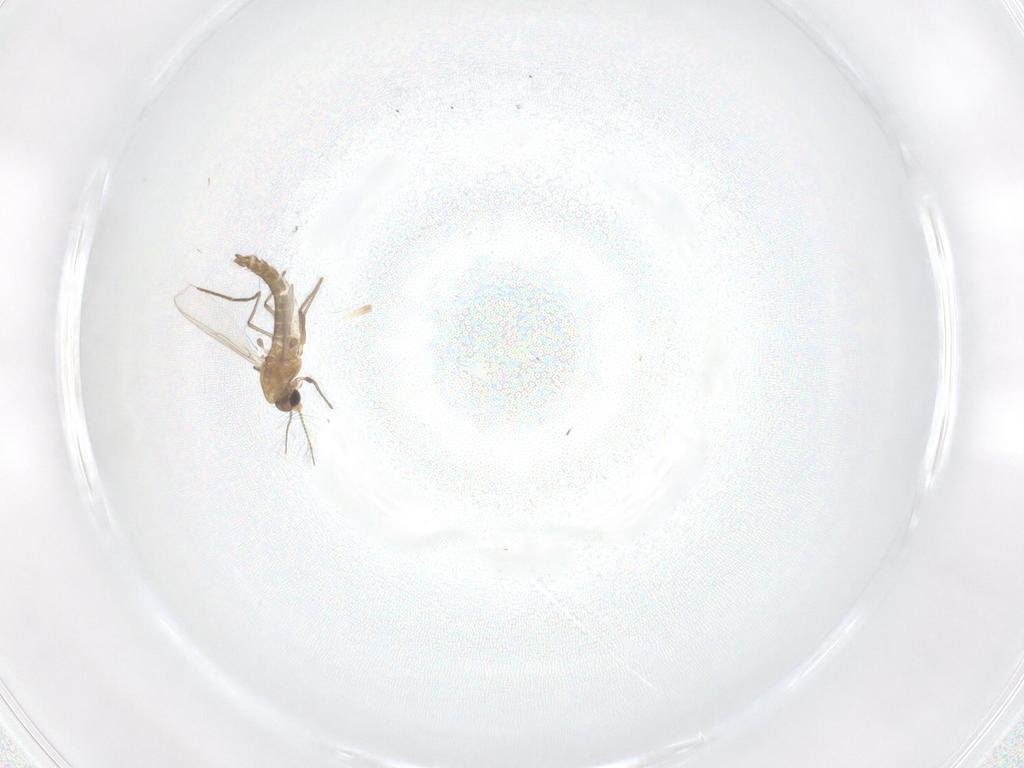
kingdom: Animalia
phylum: Arthropoda
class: Insecta
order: Diptera
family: Chironomidae
